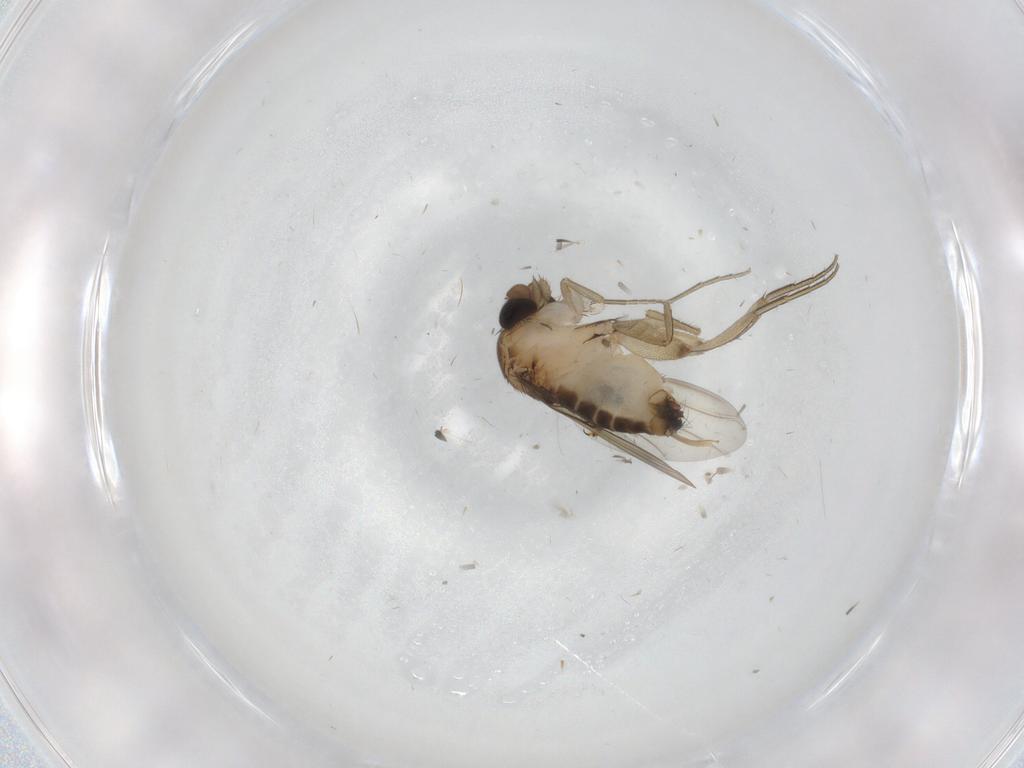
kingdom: Animalia
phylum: Arthropoda
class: Insecta
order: Diptera
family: Phoridae
